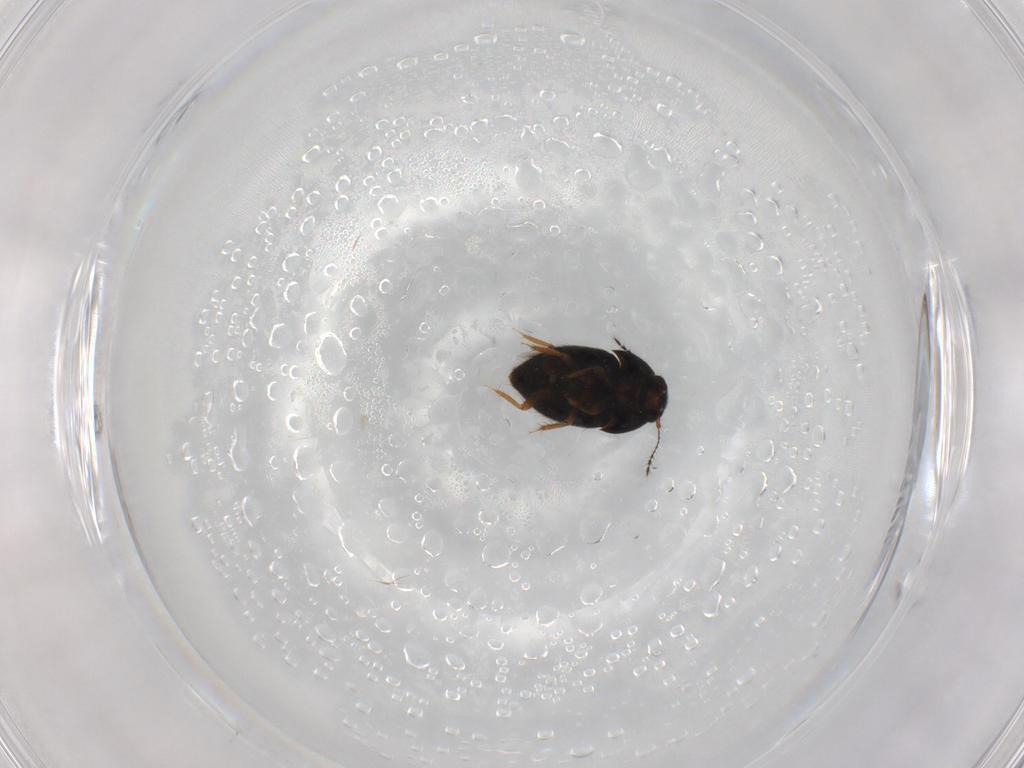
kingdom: Animalia
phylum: Arthropoda
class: Insecta
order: Coleoptera
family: Ptiliidae
